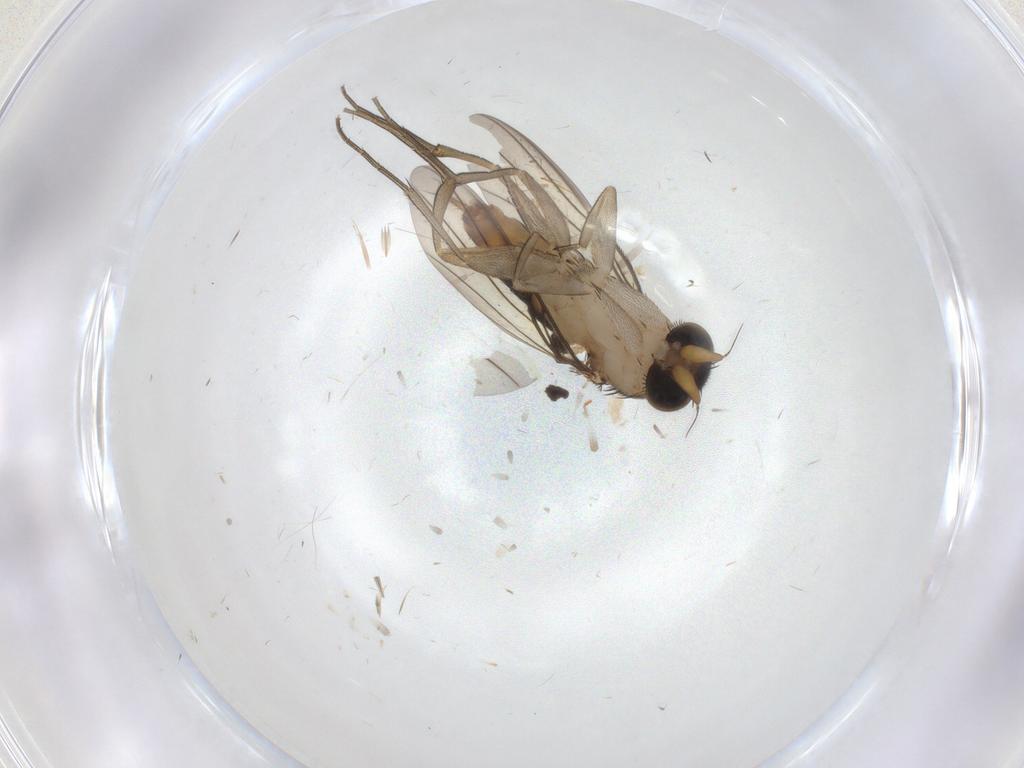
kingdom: Animalia
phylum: Arthropoda
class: Insecta
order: Diptera
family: Phoridae
